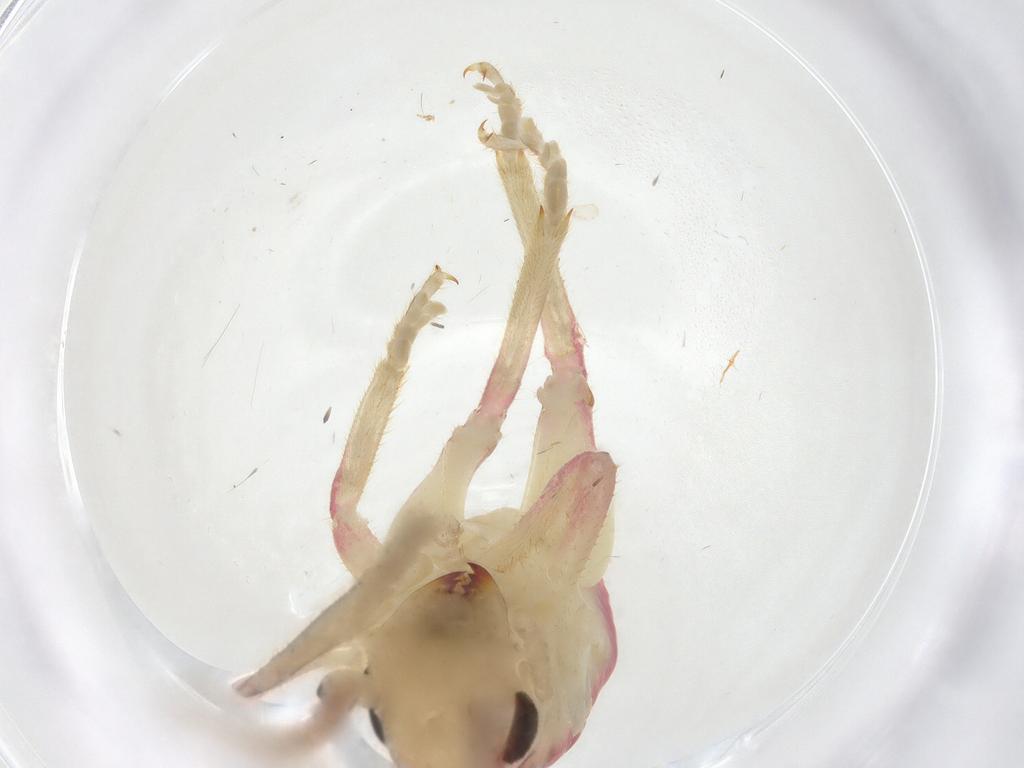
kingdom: Animalia
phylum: Arthropoda
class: Insecta
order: Orthoptera
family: Gryllacrididae
